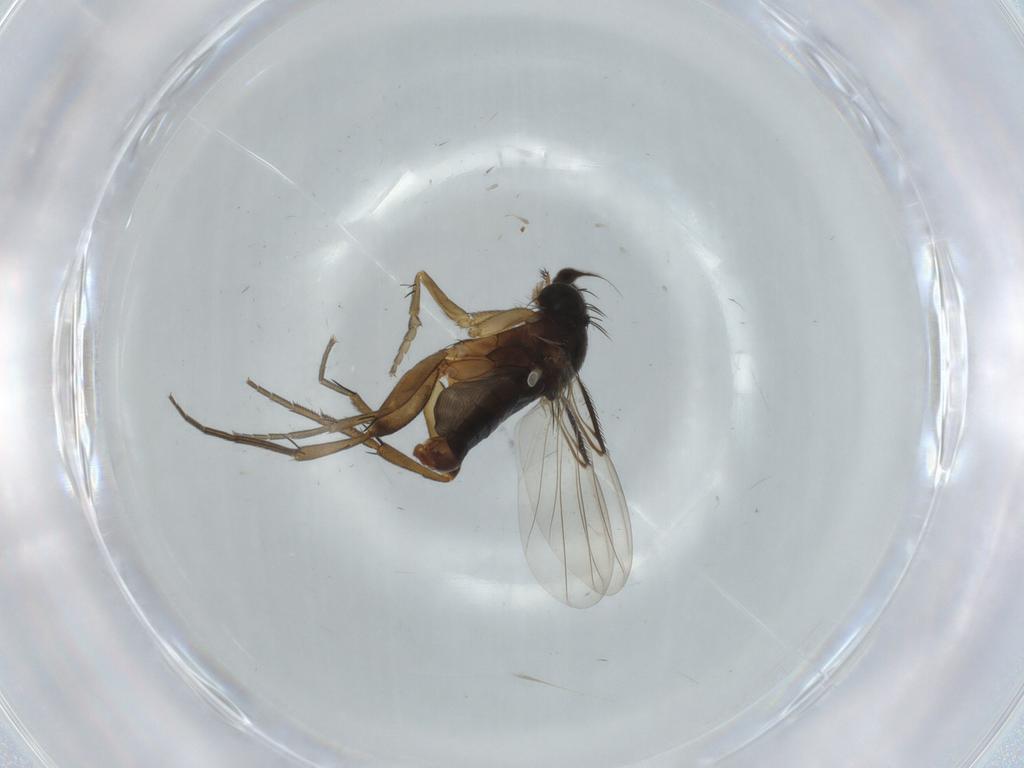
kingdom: Animalia
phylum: Arthropoda
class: Insecta
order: Diptera
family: Phoridae
